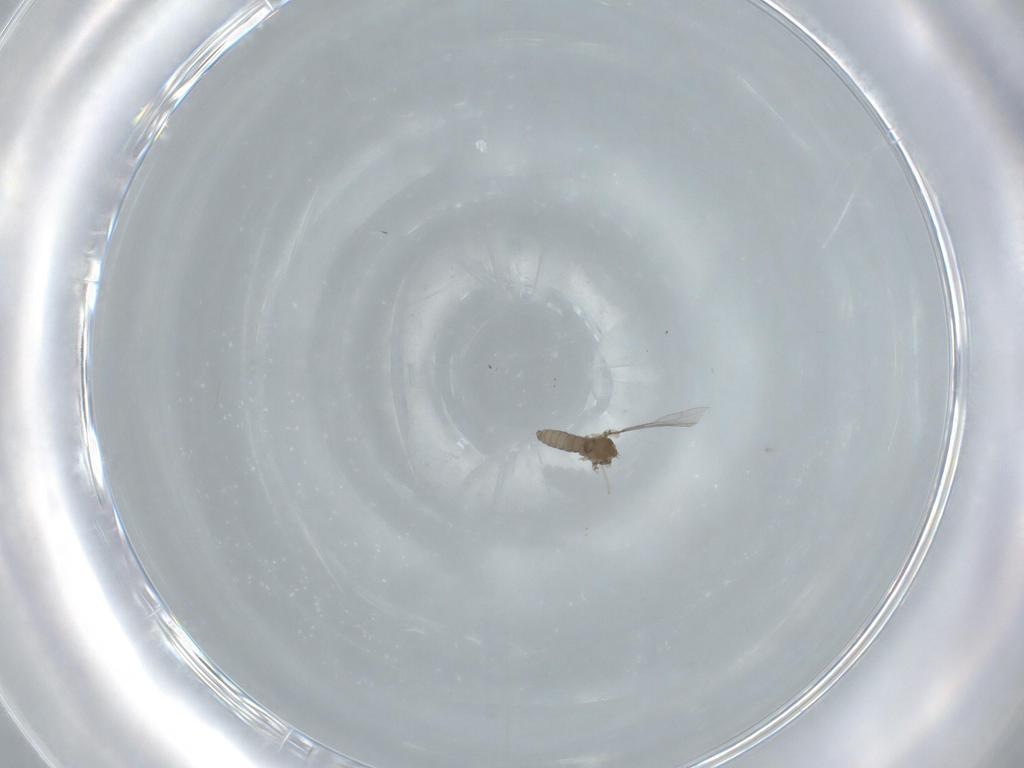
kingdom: Animalia
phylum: Arthropoda
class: Insecta
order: Diptera
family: Cecidomyiidae
